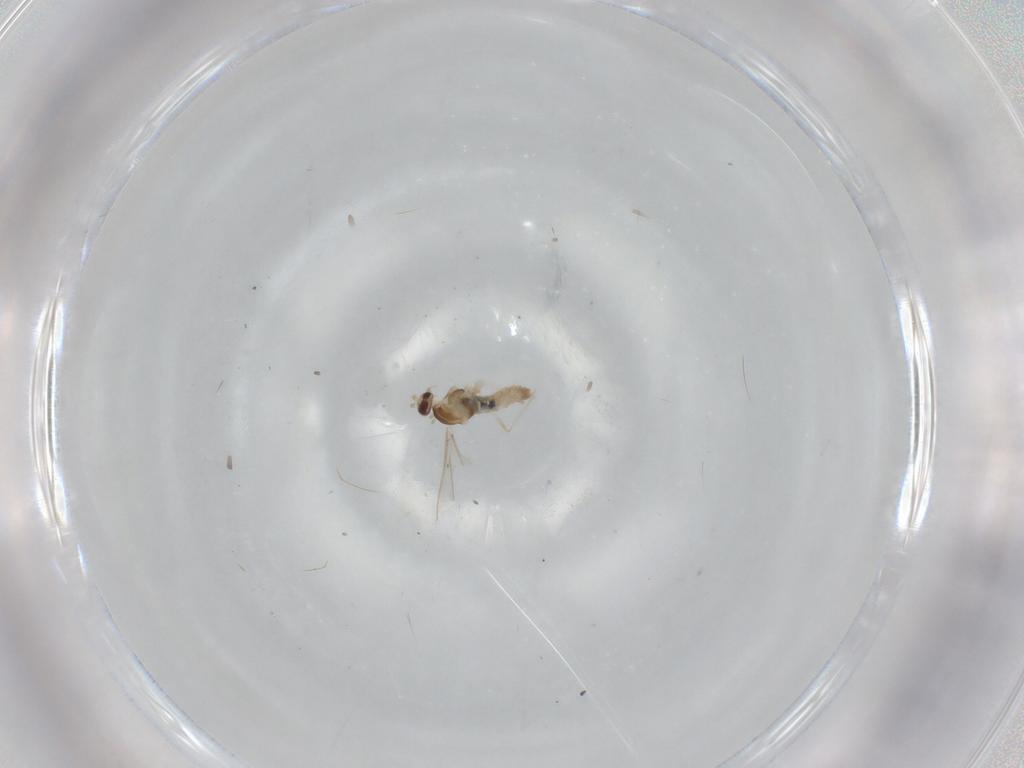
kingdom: Animalia
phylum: Arthropoda
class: Insecta
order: Diptera
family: Cecidomyiidae
